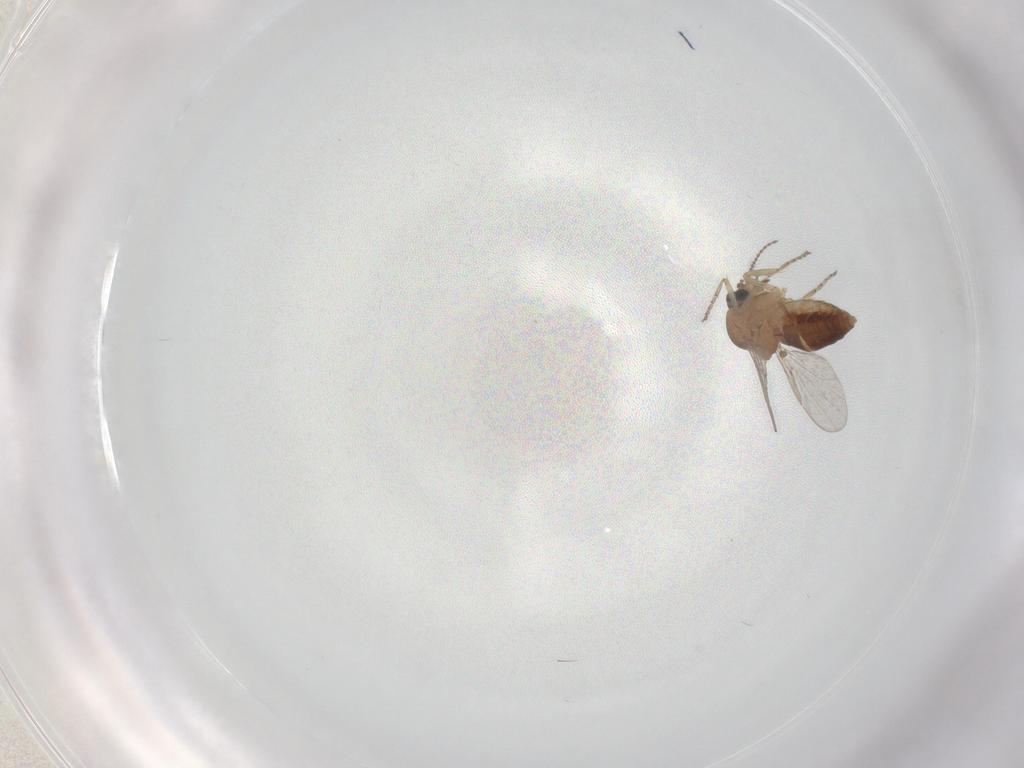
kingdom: Animalia
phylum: Arthropoda
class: Insecta
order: Diptera
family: Ceratopogonidae
